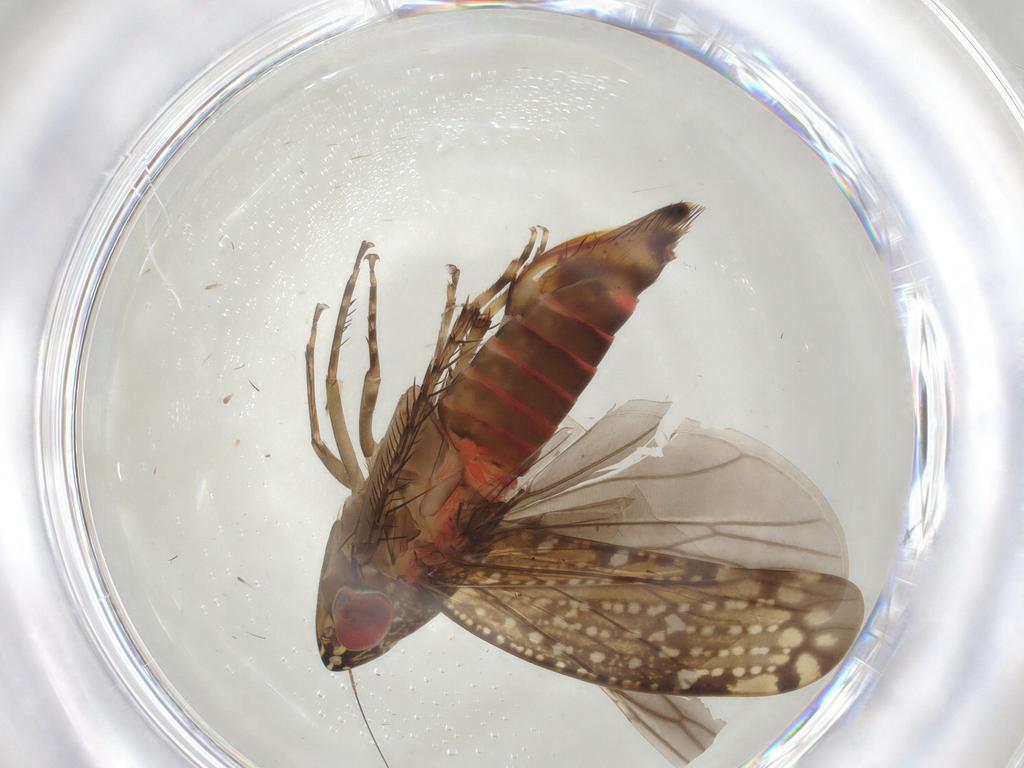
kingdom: Animalia
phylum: Arthropoda
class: Insecta
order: Hemiptera
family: Cicadellidae
